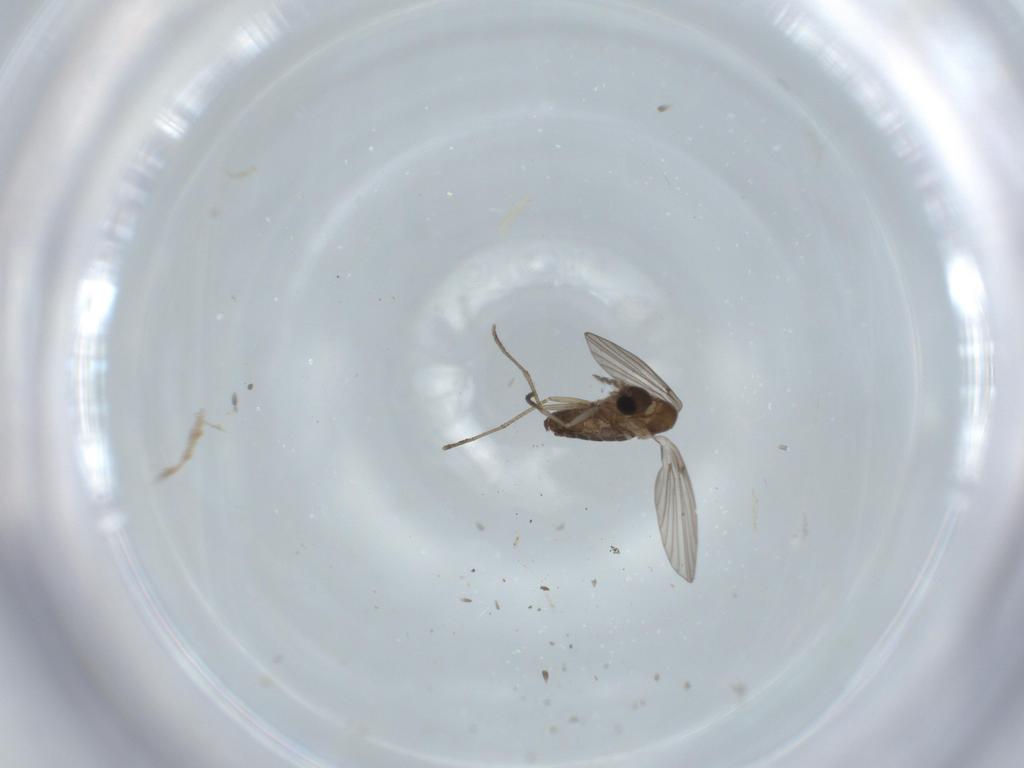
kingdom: Animalia
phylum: Arthropoda
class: Insecta
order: Diptera
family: Psychodidae
